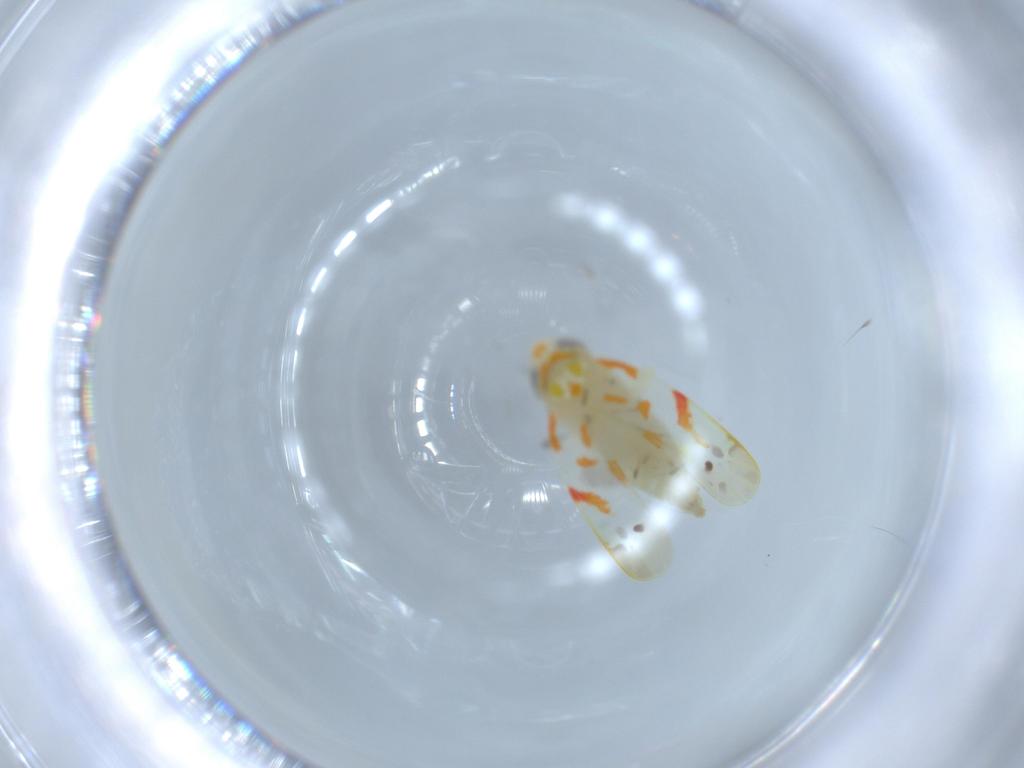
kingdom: Animalia
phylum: Arthropoda
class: Insecta
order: Hemiptera
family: Cicadellidae
